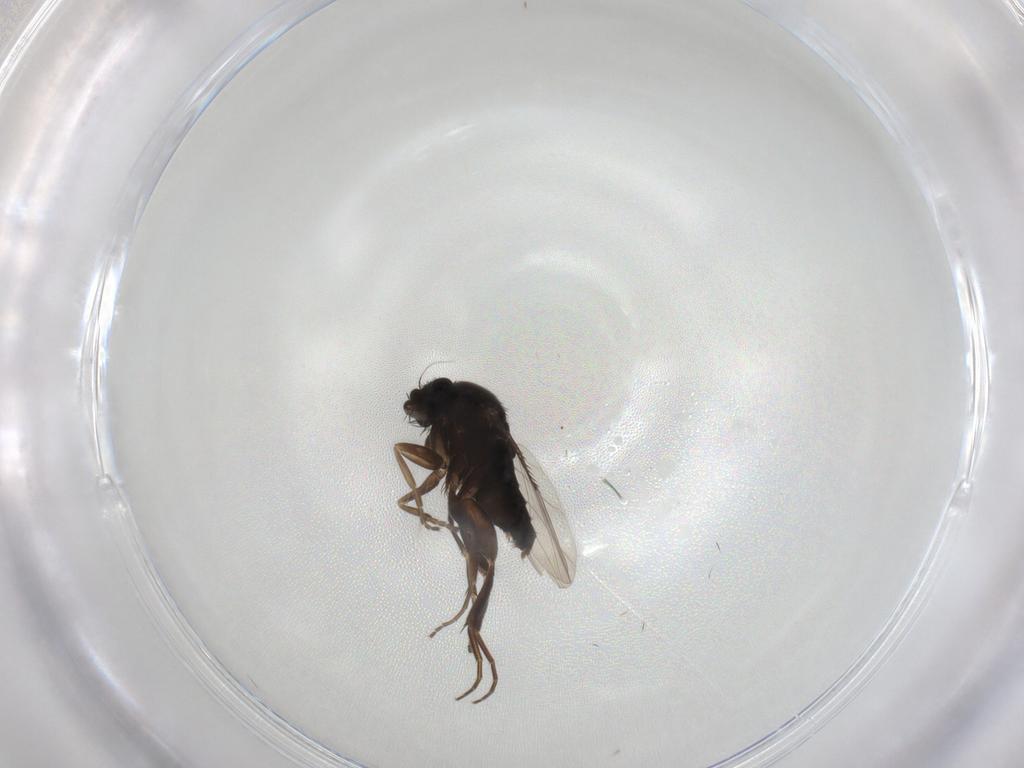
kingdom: Animalia
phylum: Arthropoda
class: Insecta
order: Diptera
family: Phoridae
